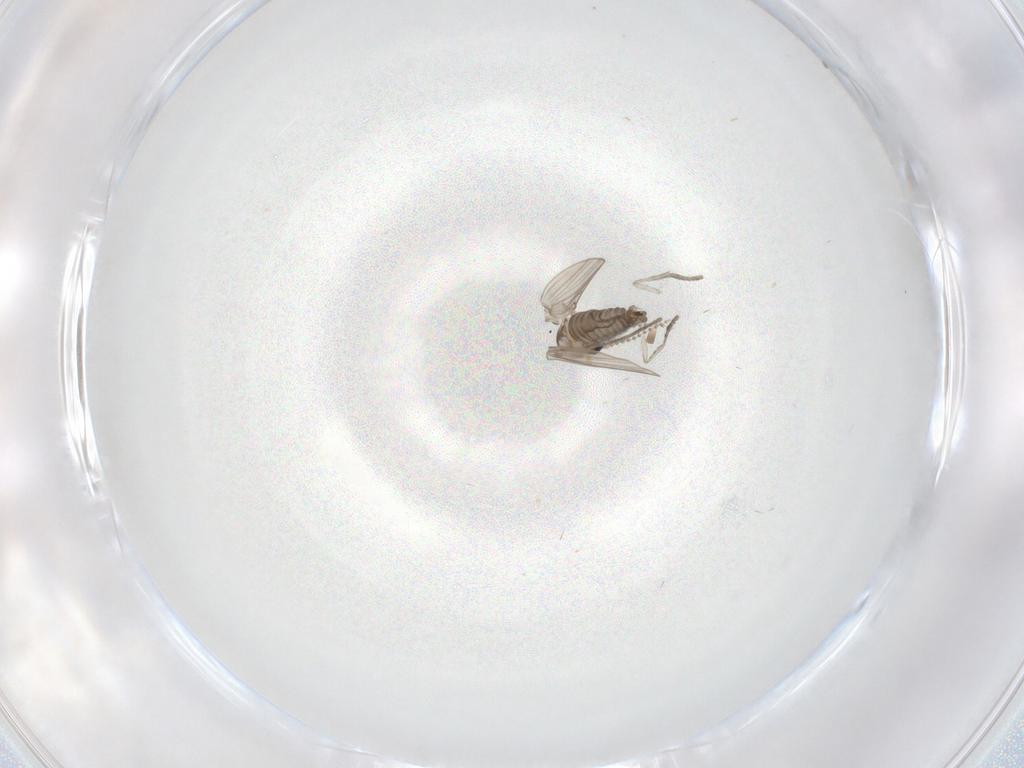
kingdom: Animalia
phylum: Arthropoda
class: Insecta
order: Diptera
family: Psychodidae
